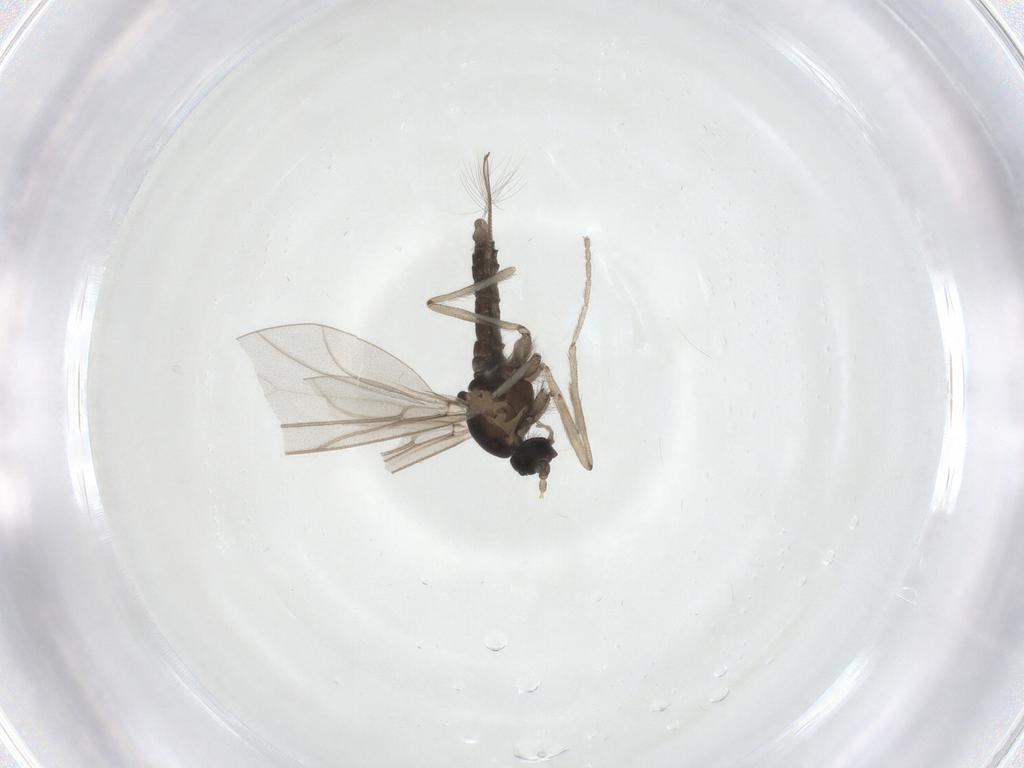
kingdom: Animalia
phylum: Arthropoda
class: Insecta
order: Diptera
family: Cecidomyiidae
